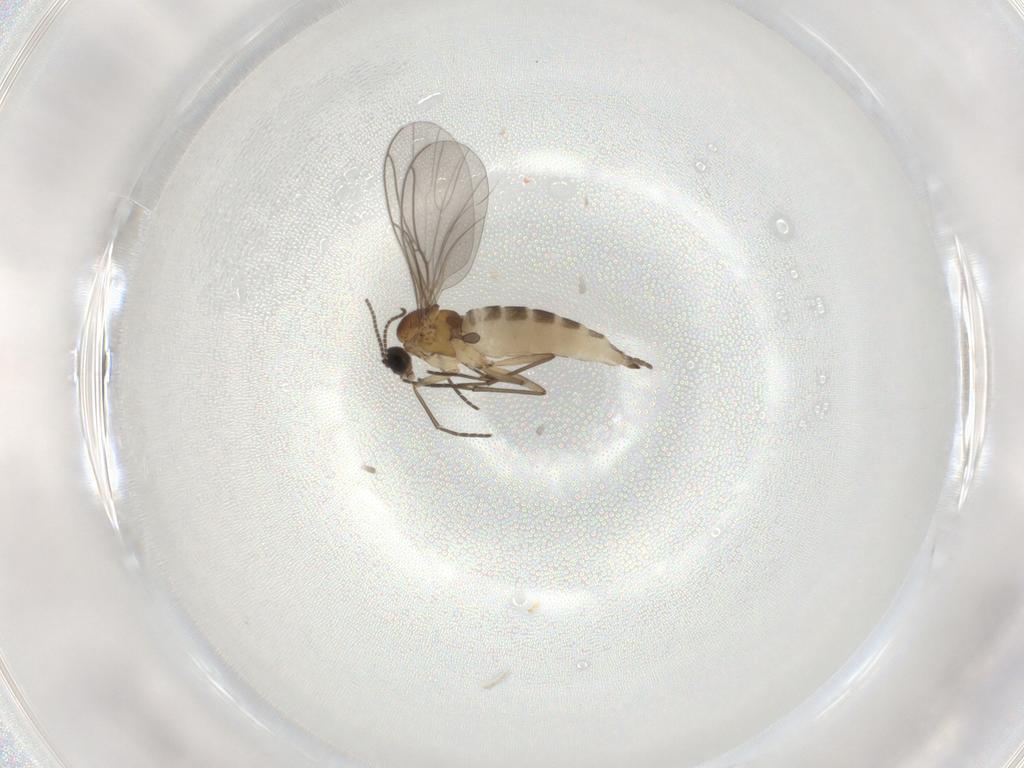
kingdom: Animalia
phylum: Arthropoda
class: Insecta
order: Diptera
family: Sciaridae
